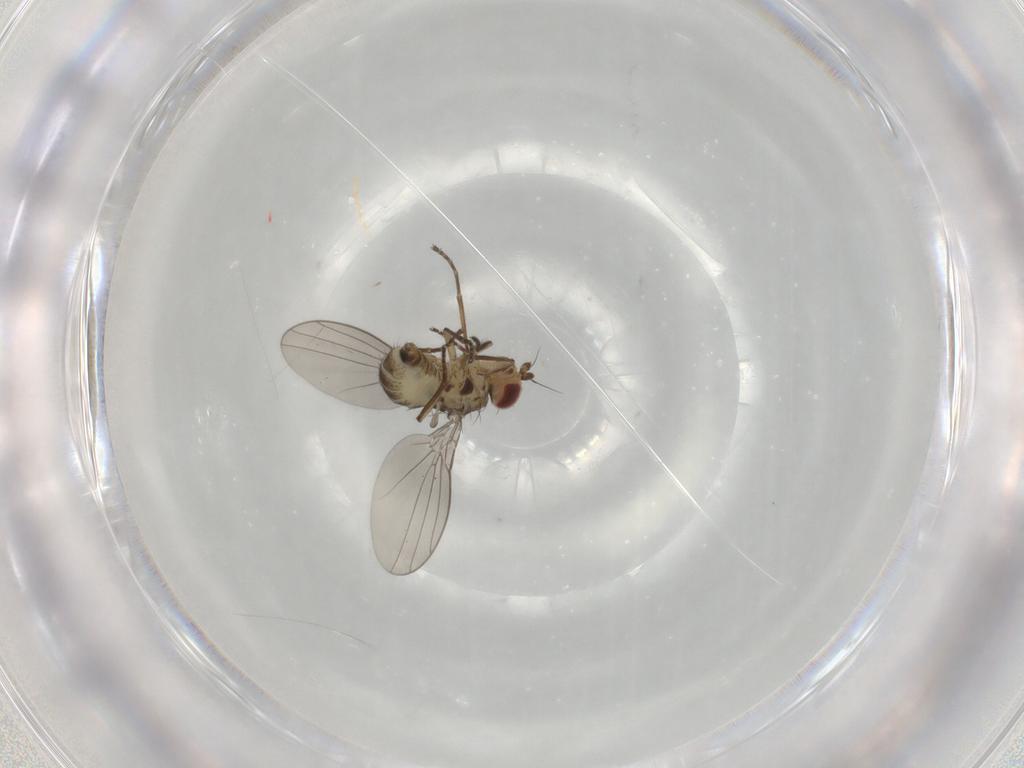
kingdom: Animalia
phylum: Arthropoda
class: Insecta
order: Diptera
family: Agromyzidae
